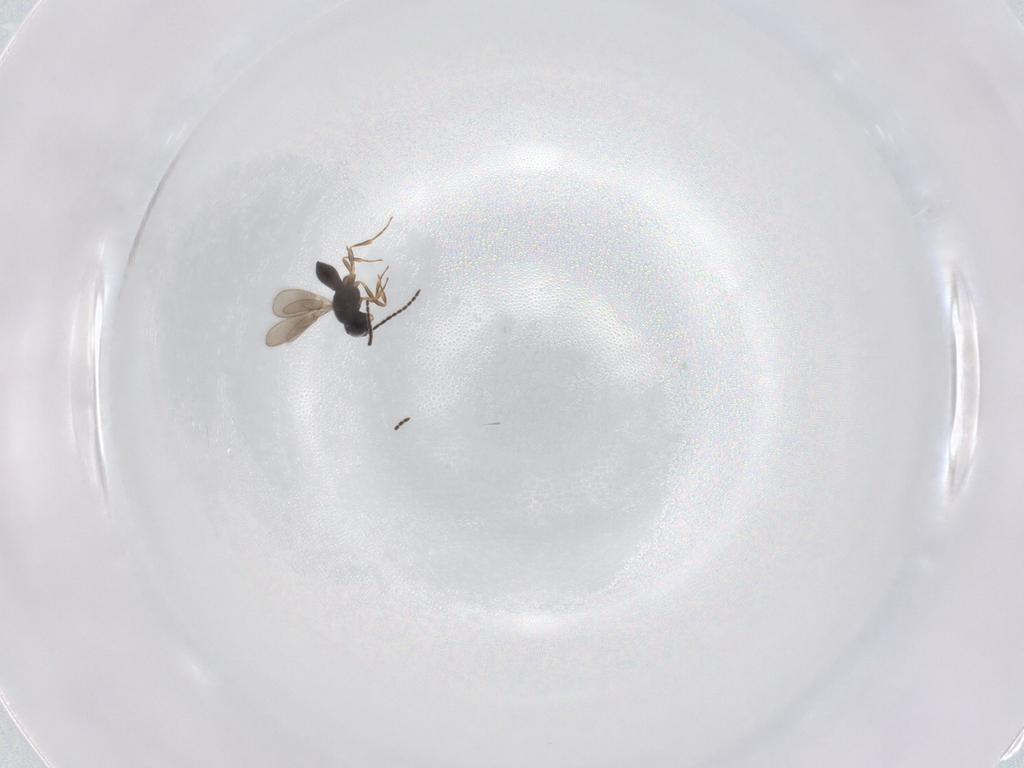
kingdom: Animalia
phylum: Arthropoda
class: Insecta
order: Hymenoptera
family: Scelionidae
